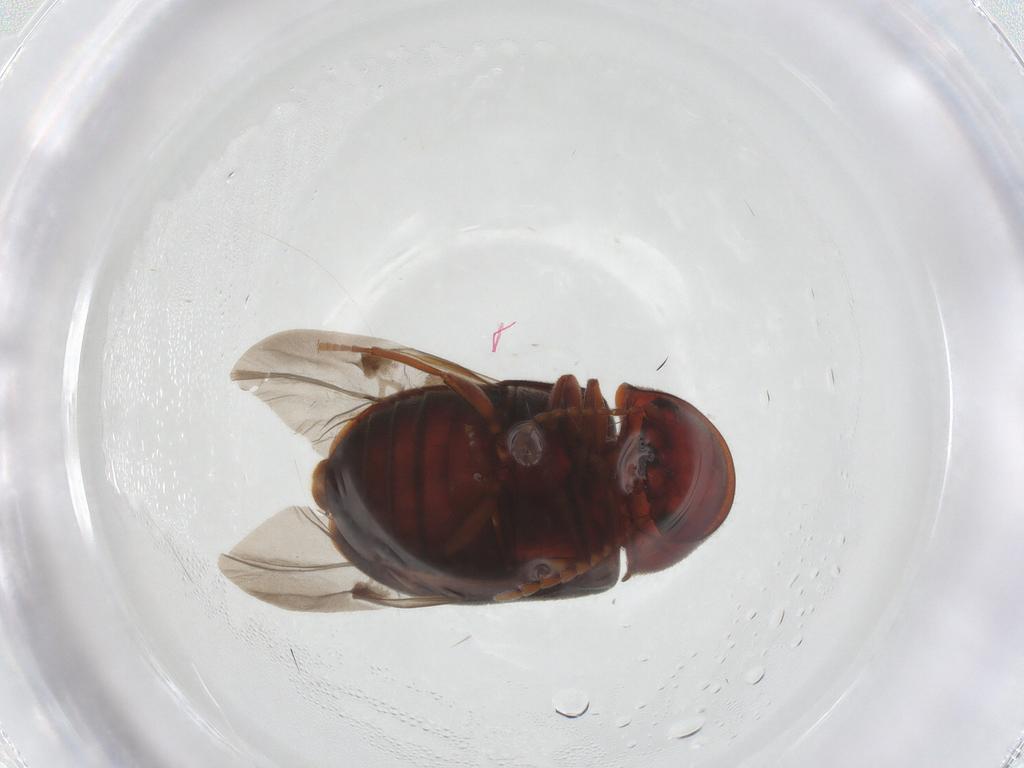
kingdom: Animalia
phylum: Arthropoda
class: Insecta
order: Coleoptera
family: Ptinidae
